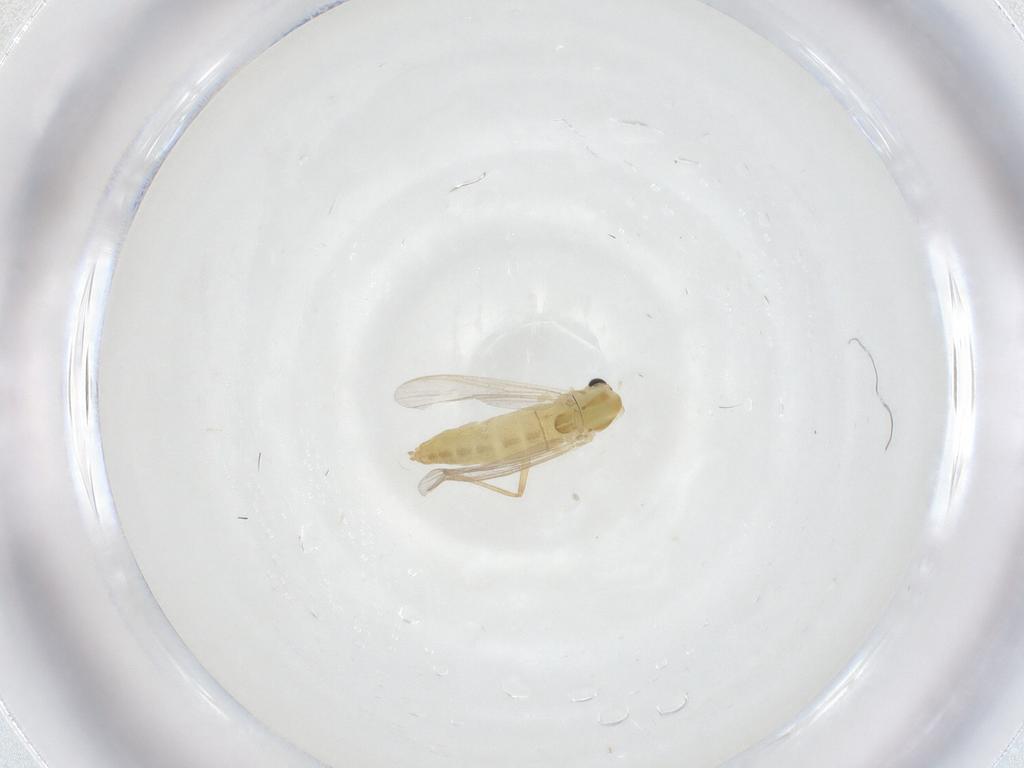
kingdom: Animalia
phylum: Arthropoda
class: Insecta
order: Diptera
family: Chironomidae
